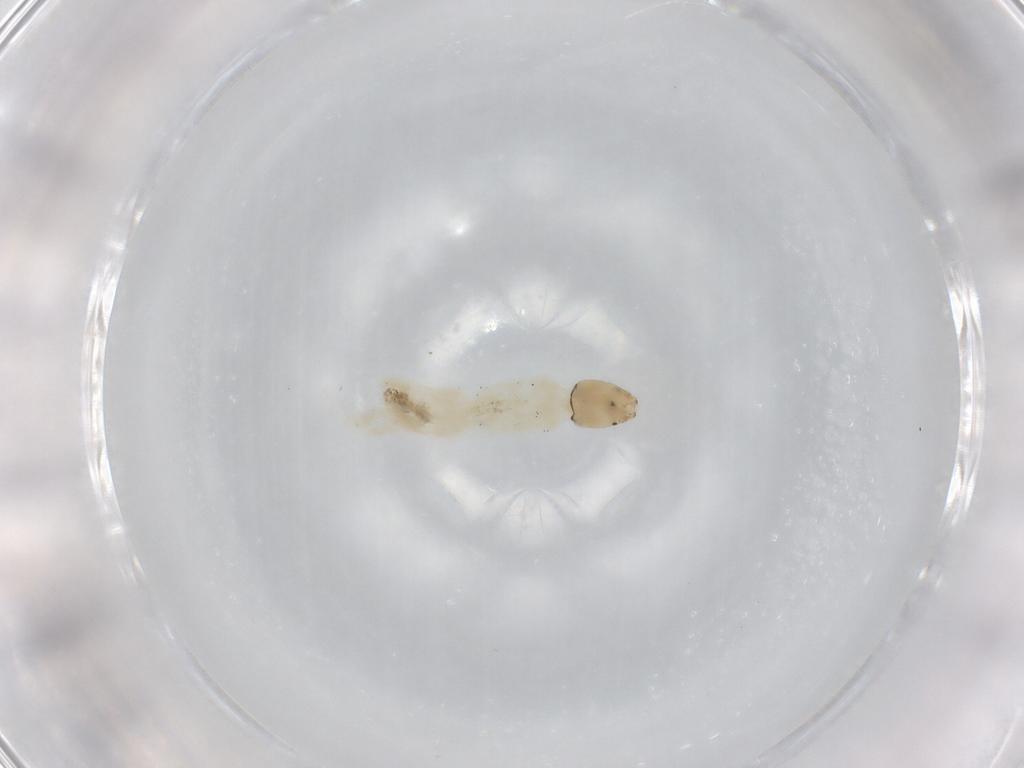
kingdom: Animalia
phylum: Arthropoda
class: Insecta
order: Diptera
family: Chironomidae
